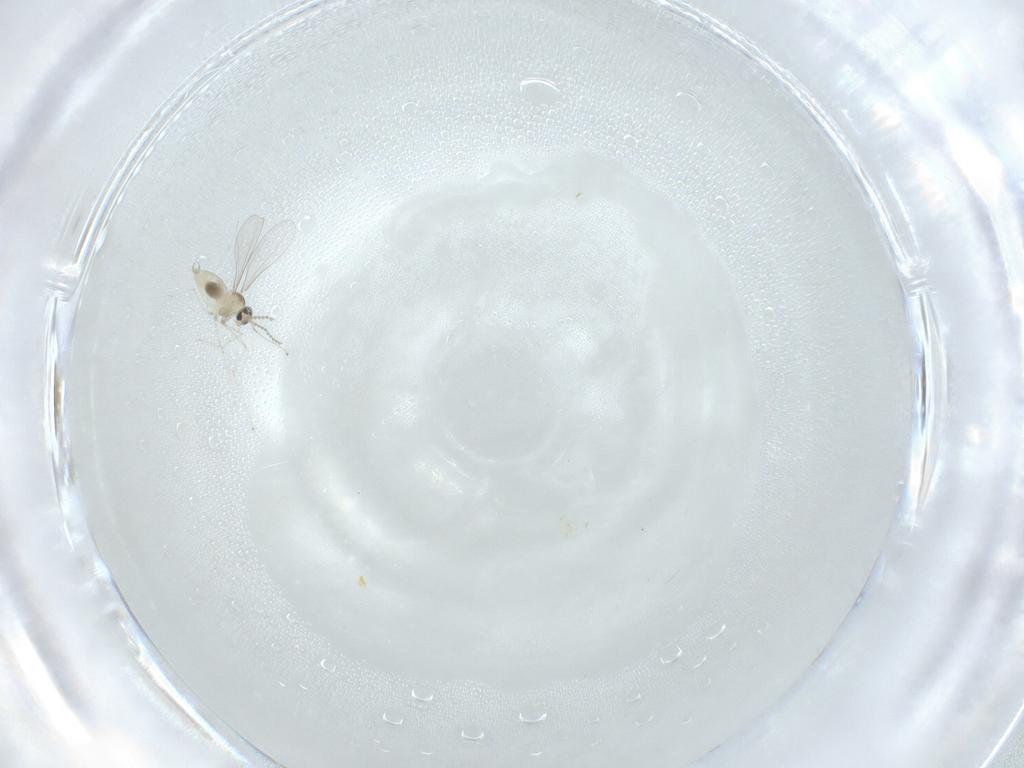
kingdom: Animalia
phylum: Arthropoda
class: Insecta
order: Diptera
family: Cecidomyiidae
